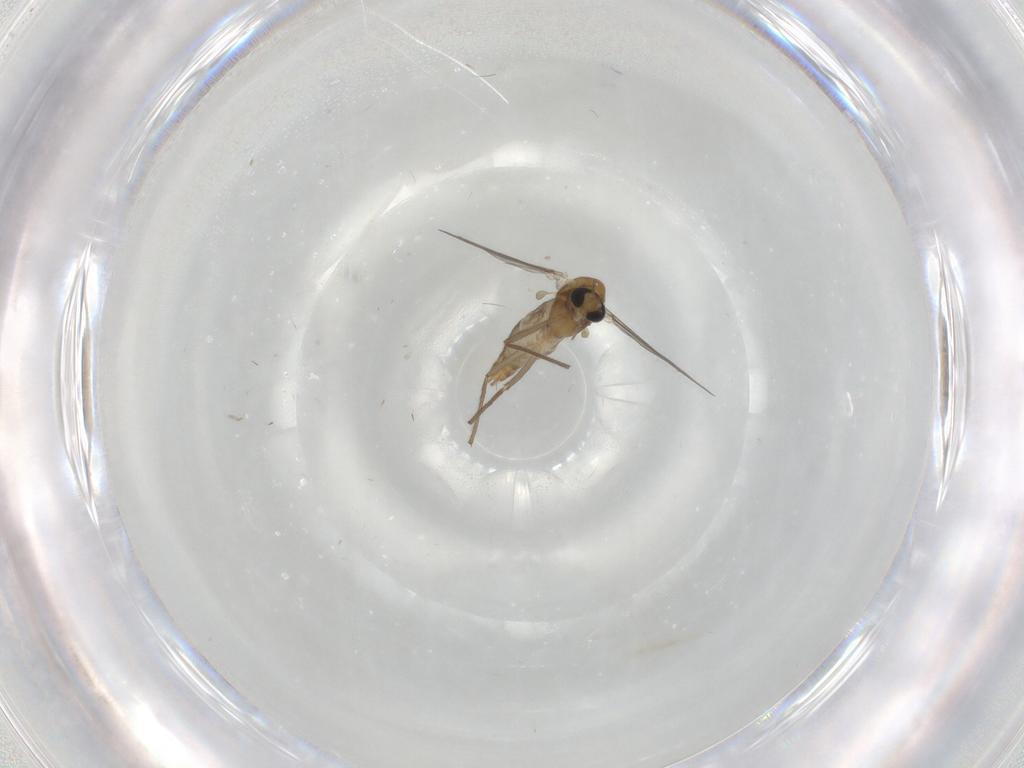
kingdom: Animalia
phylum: Arthropoda
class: Insecta
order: Diptera
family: Chironomidae
